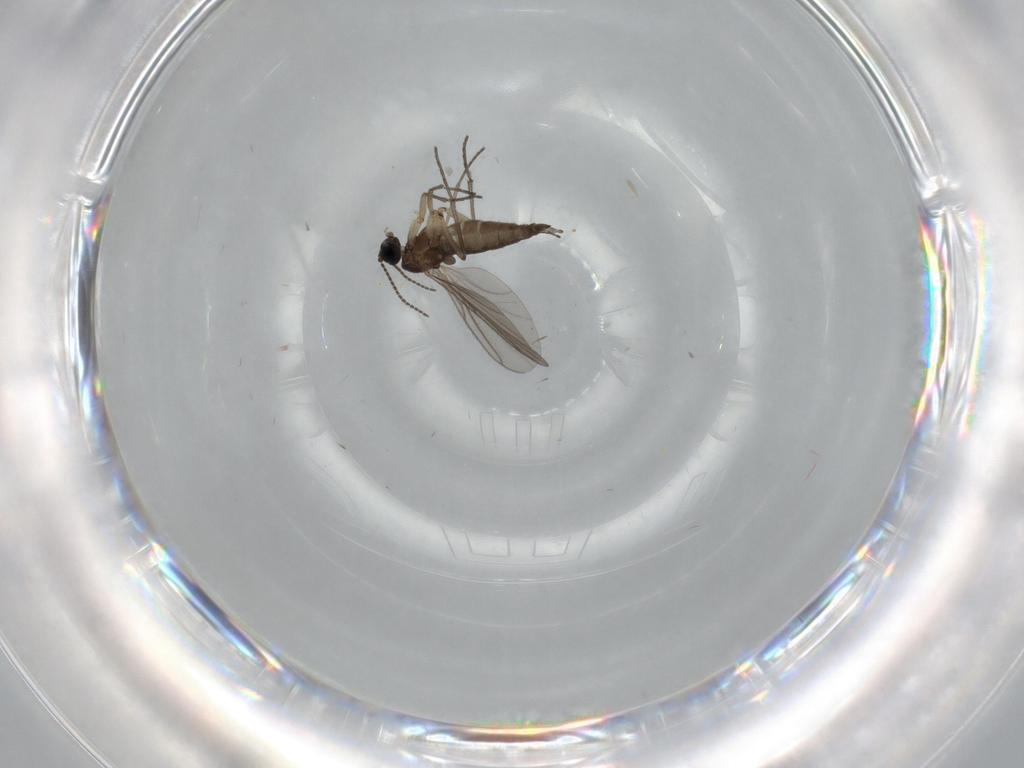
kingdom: Animalia
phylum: Arthropoda
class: Insecta
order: Diptera
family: Sciaridae
